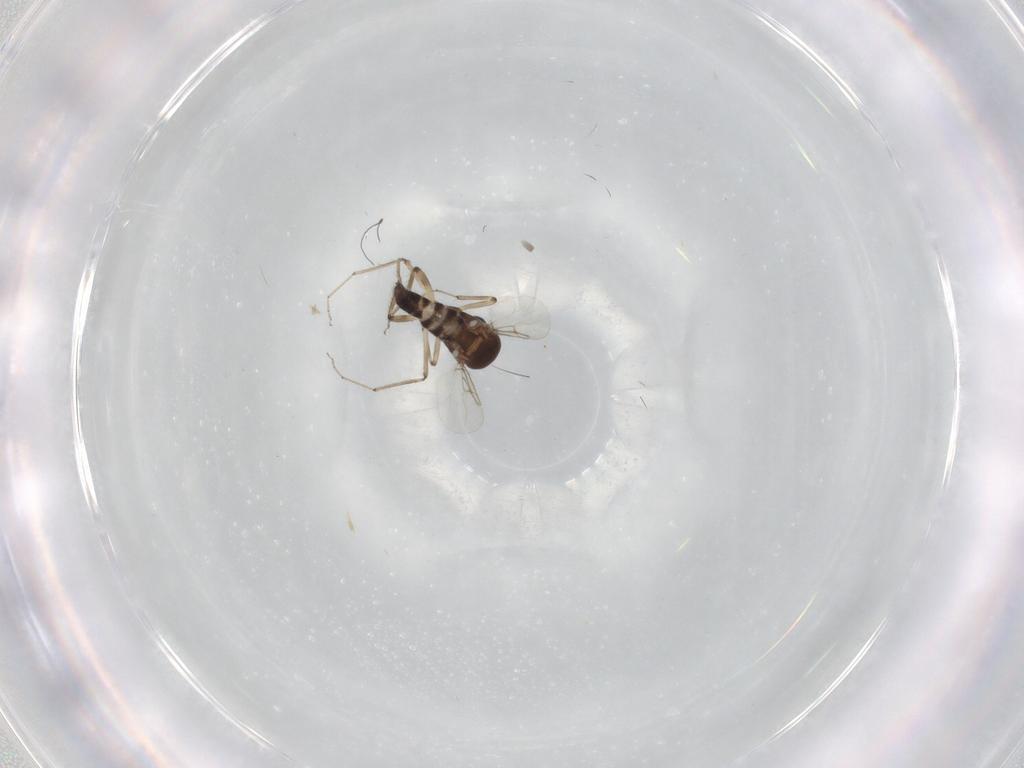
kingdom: Animalia
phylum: Arthropoda
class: Insecta
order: Diptera
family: Ceratopogonidae
